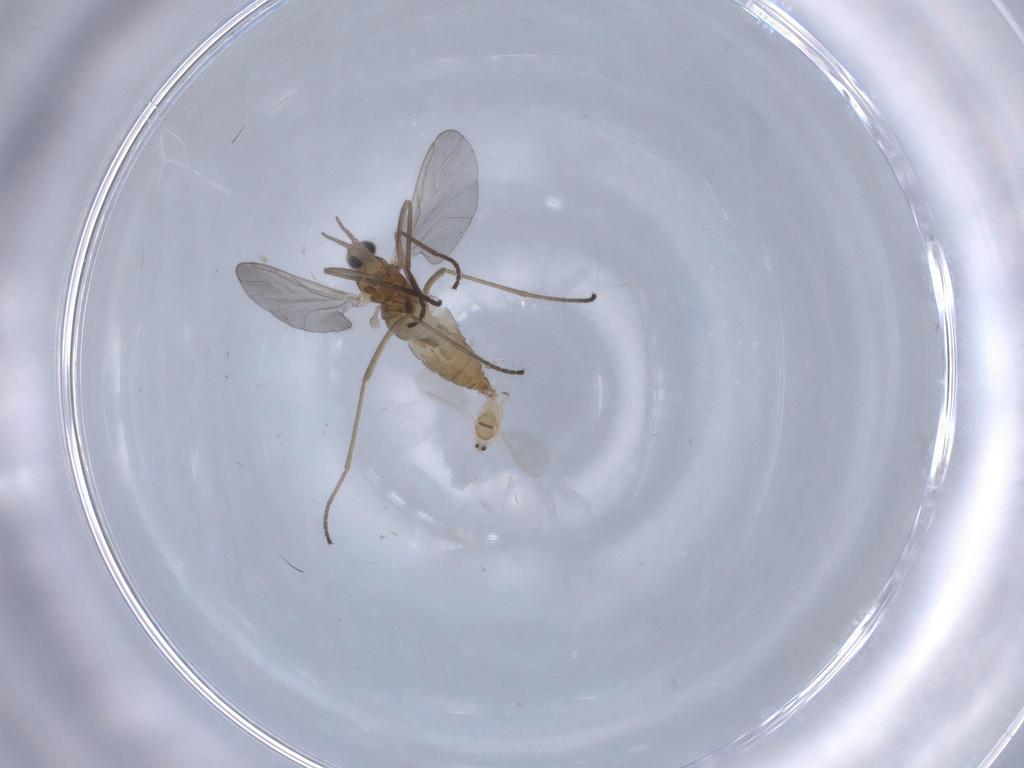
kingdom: Animalia
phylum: Arthropoda
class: Insecta
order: Diptera
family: Cecidomyiidae
